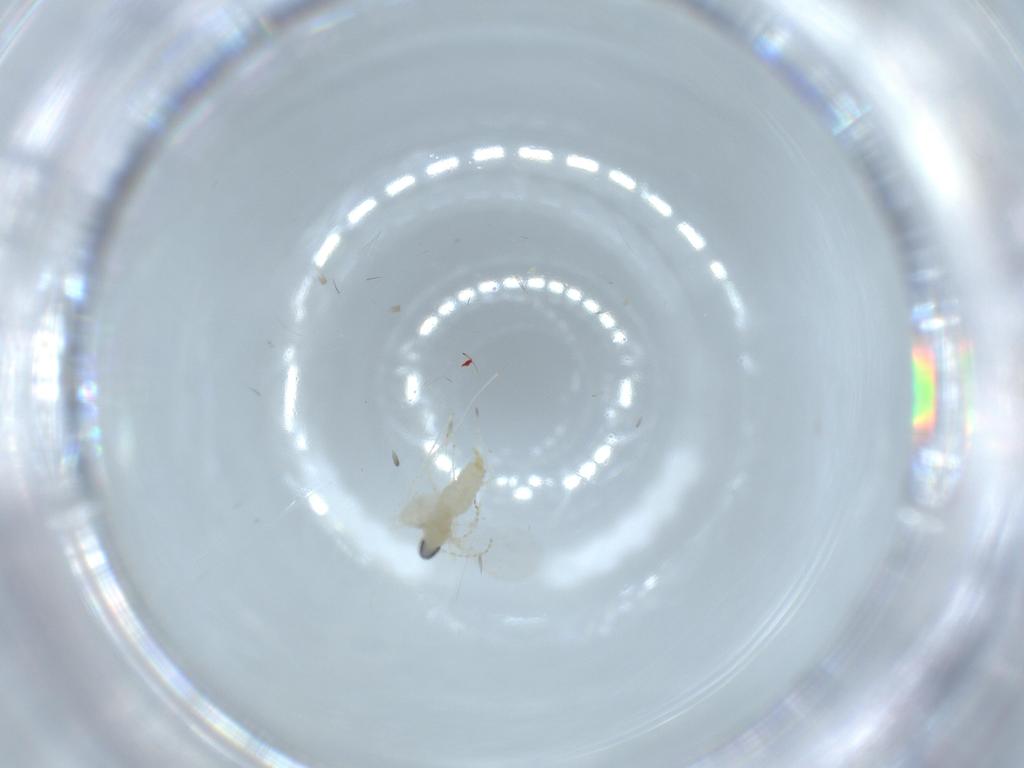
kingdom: Animalia
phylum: Arthropoda
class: Insecta
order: Diptera
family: Sciaridae
